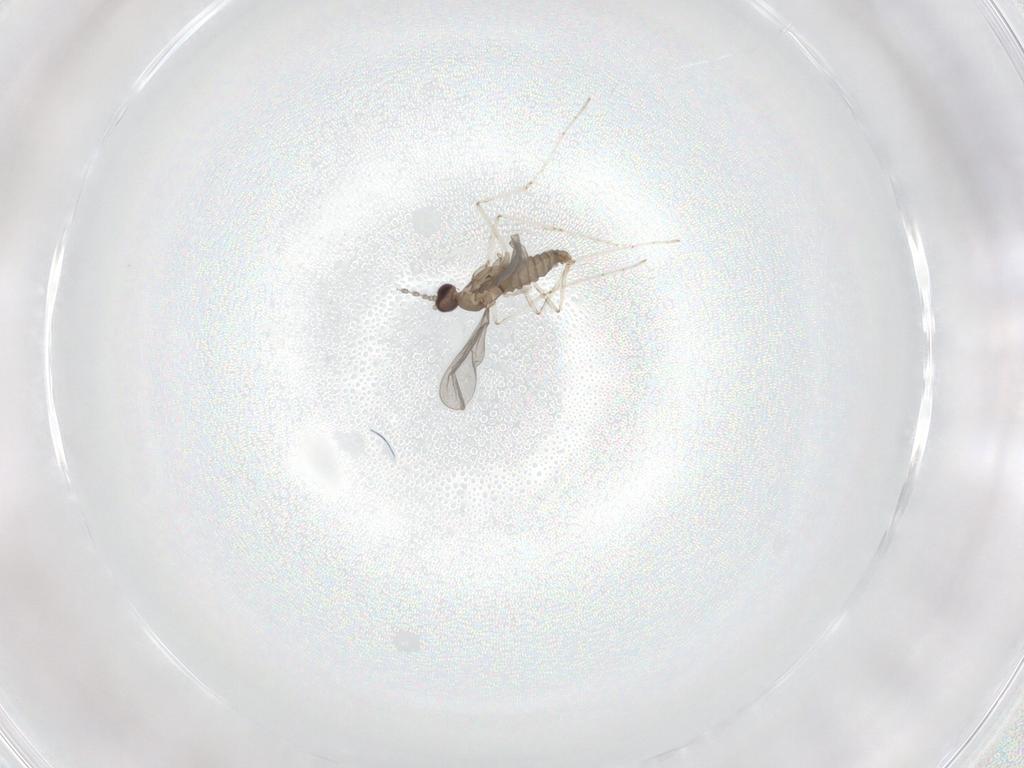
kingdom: Animalia
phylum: Arthropoda
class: Insecta
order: Diptera
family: Cecidomyiidae
